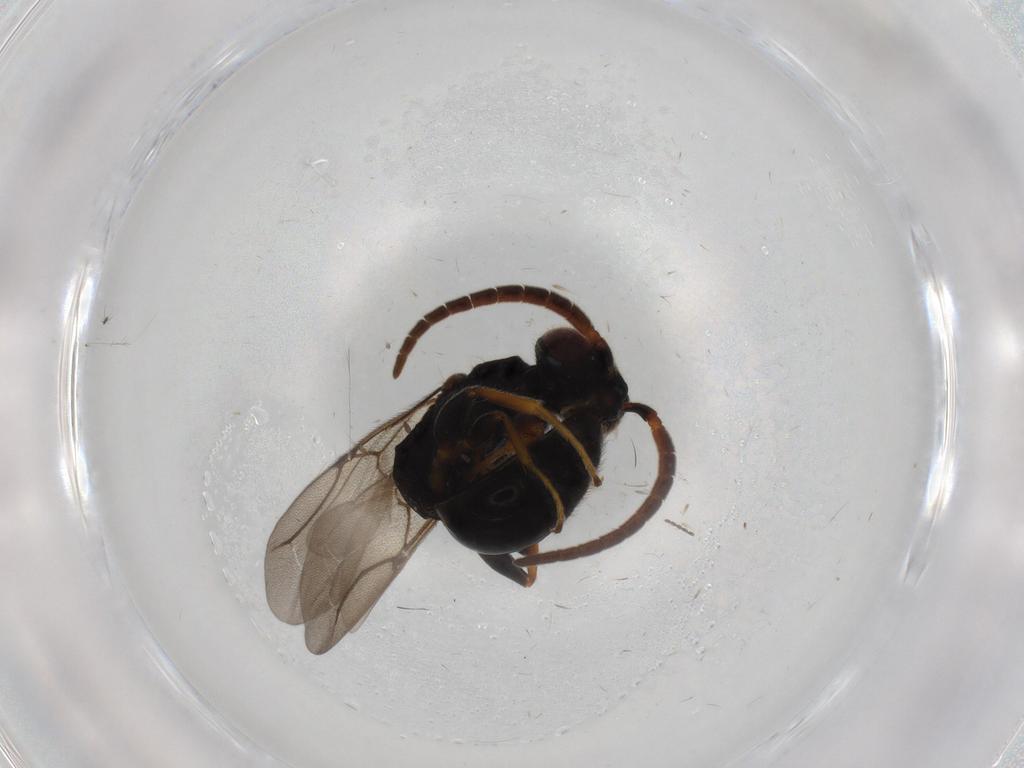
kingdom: Animalia
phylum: Arthropoda
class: Insecta
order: Hymenoptera
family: Bethylidae
